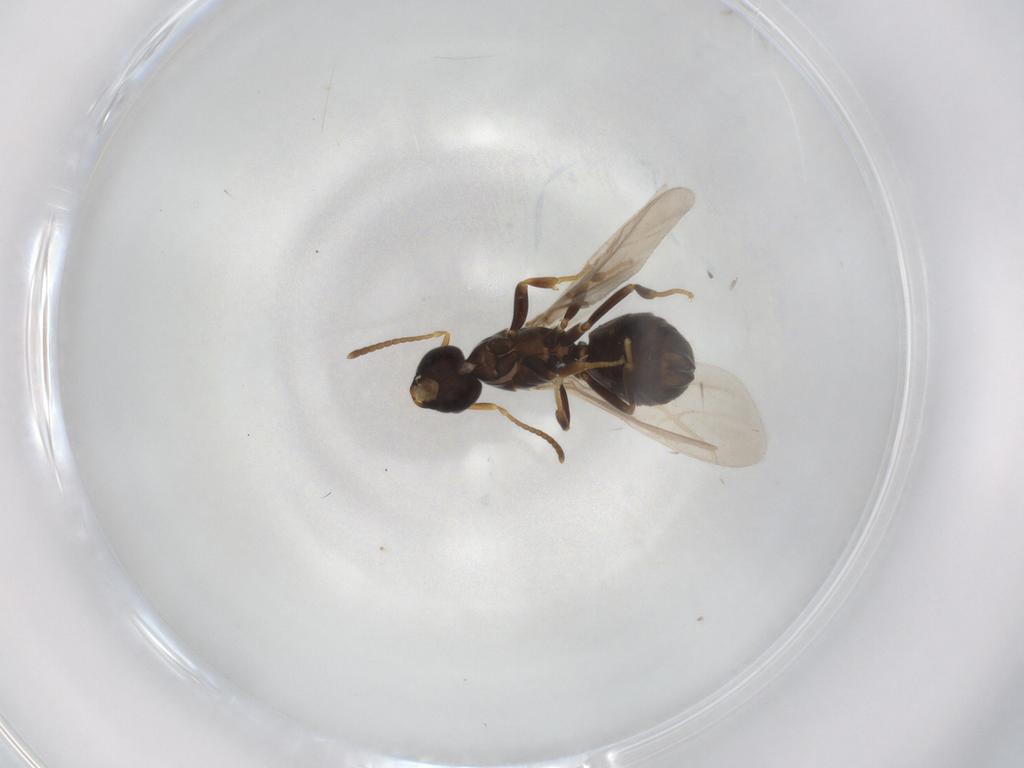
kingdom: Animalia
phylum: Arthropoda
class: Insecta
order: Hymenoptera
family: Formicidae
